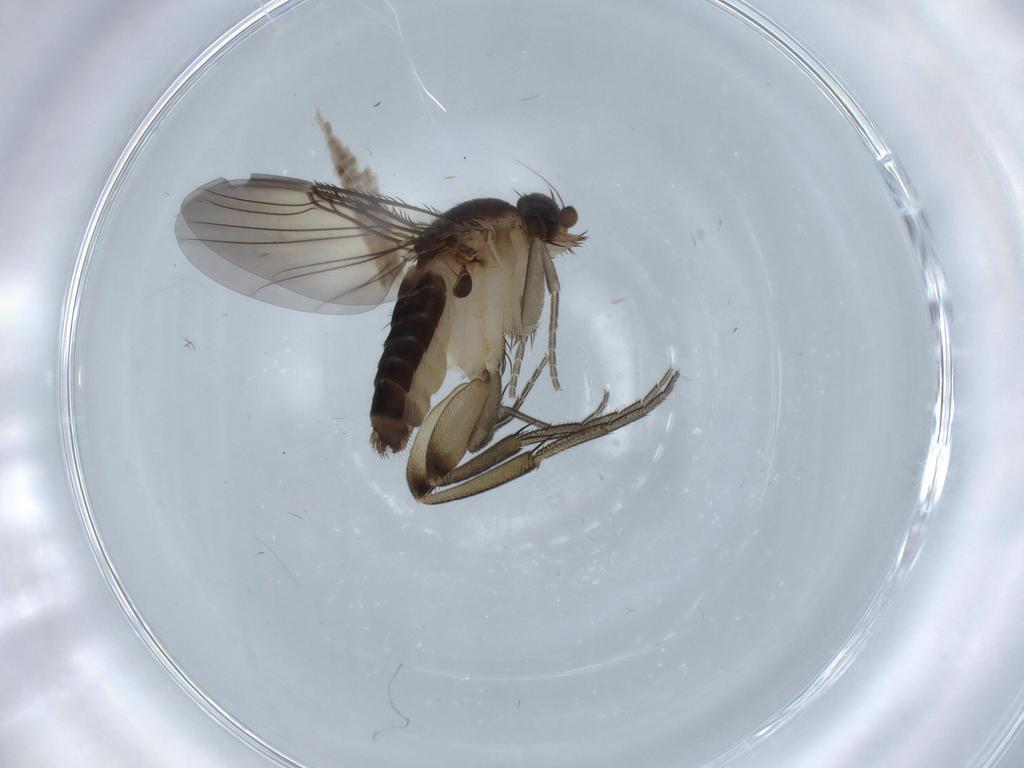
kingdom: Animalia
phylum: Arthropoda
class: Insecta
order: Diptera
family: Phoridae
